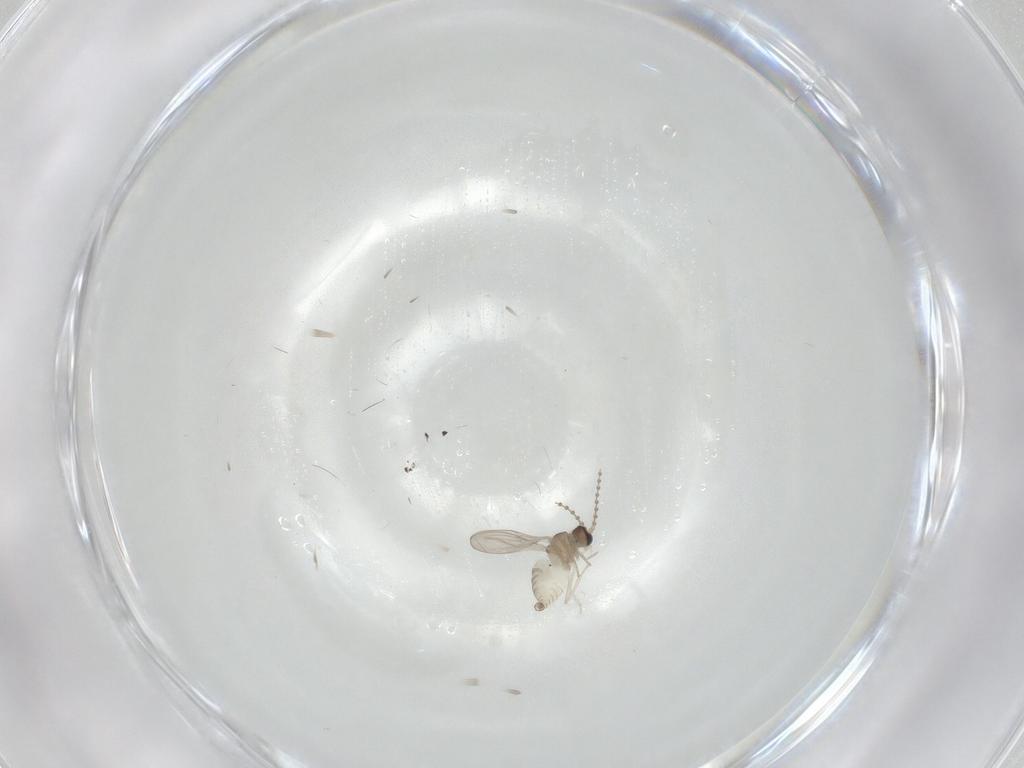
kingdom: Animalia
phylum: Arthropoda
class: Insecta
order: Diptera
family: Cecidomyiidae
